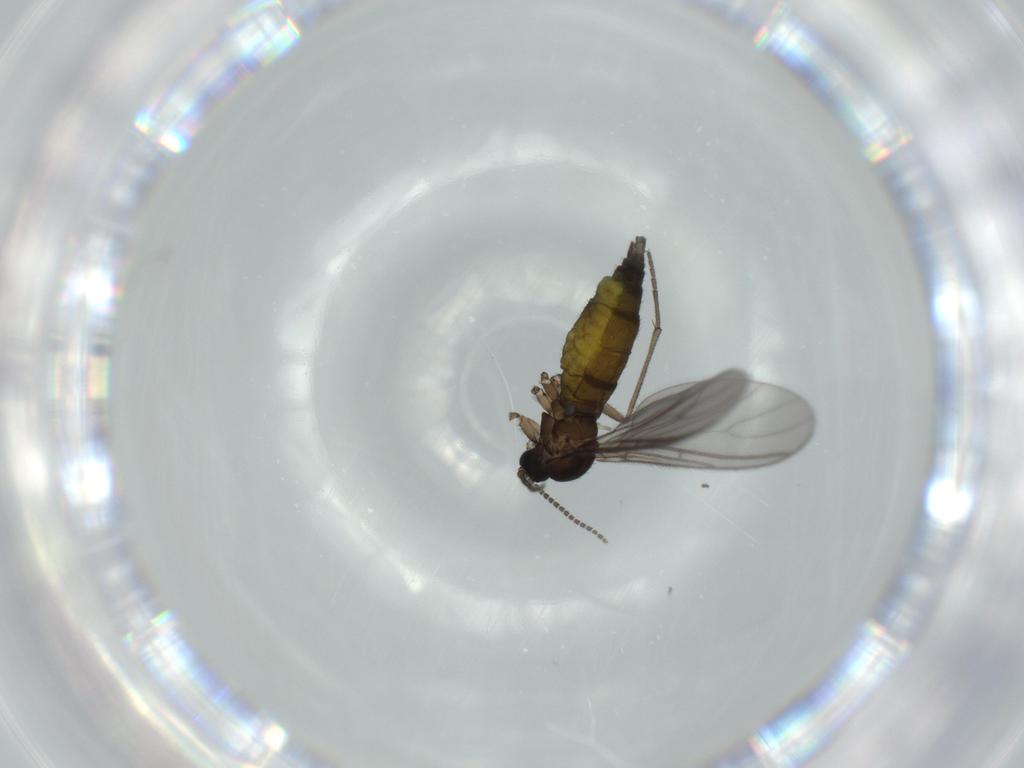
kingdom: Animalia
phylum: Arthropoda
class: Insecta
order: Diptera
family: Sciaridae
